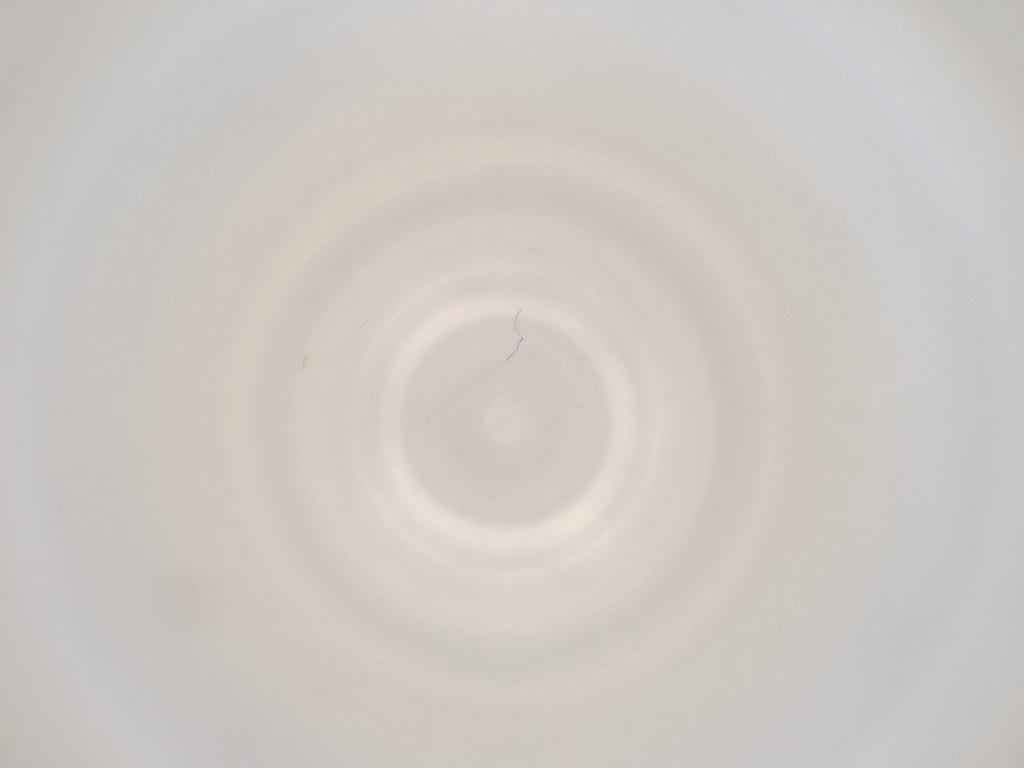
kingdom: Animalia
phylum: Arthropoda
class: Insecta
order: Diptera
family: Cecidomyiidae
